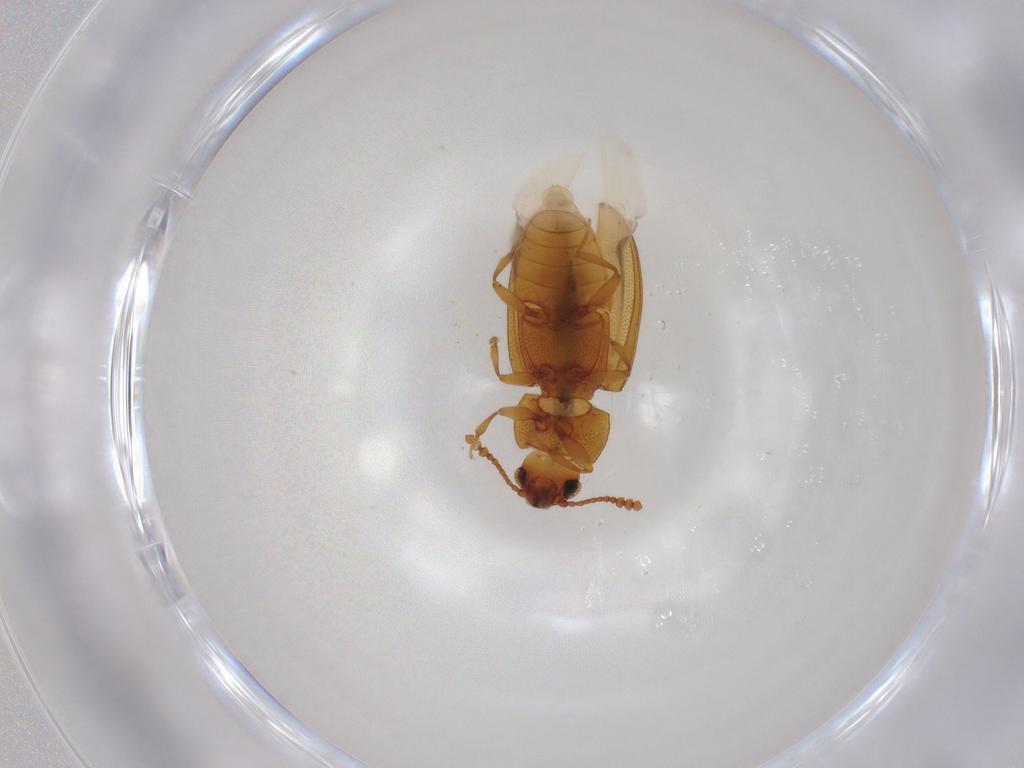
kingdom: Animalia
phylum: Arthropoda
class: Insecta
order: Coleoptera
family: Erotylidae
